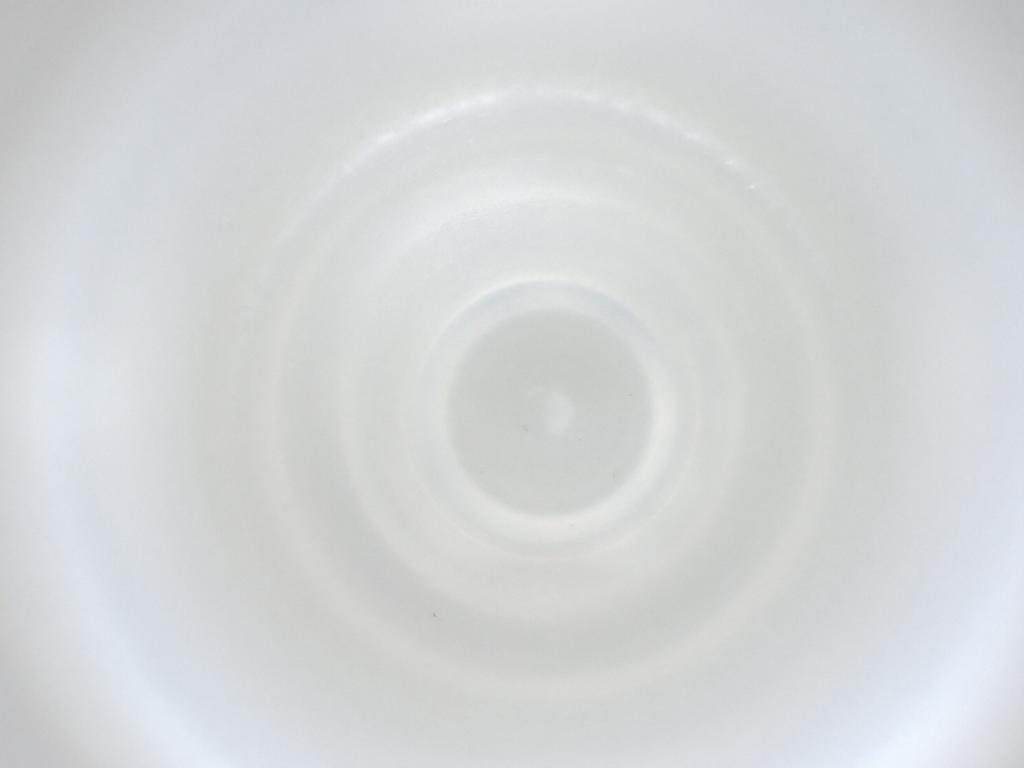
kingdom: Animalia
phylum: Arthropoda
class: Insecta
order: Diptera
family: Cecidomyiidae
